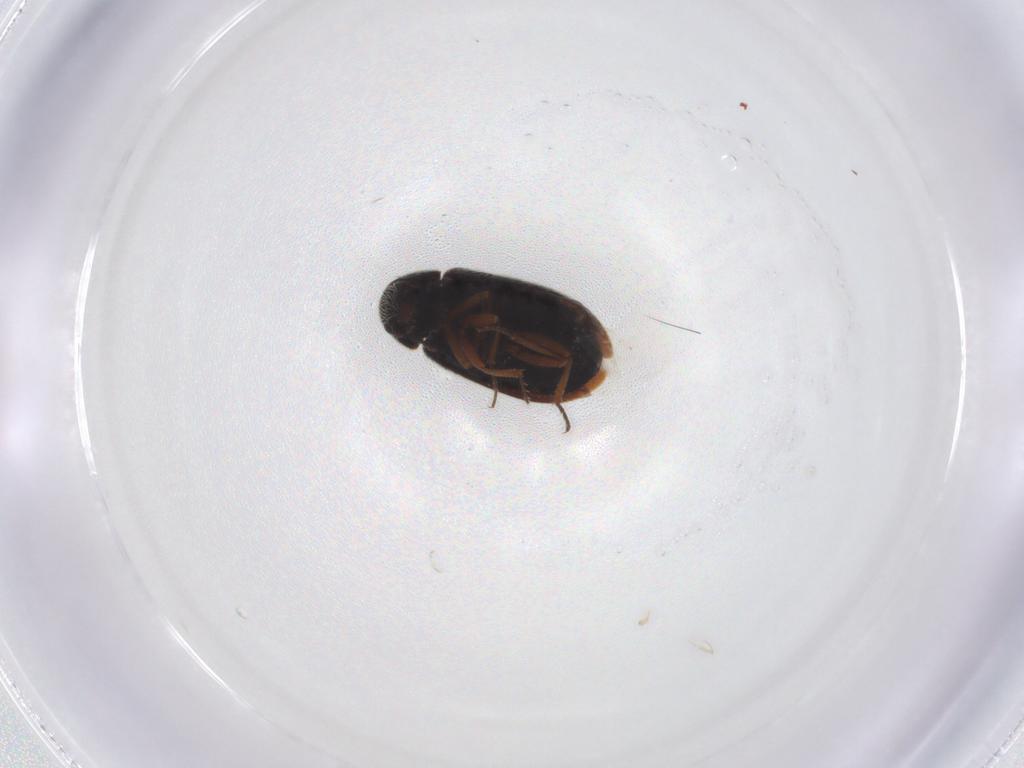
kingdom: Animalia
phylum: Arthropoda
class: Insecta
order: Coleoptera
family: Rhadalidae
